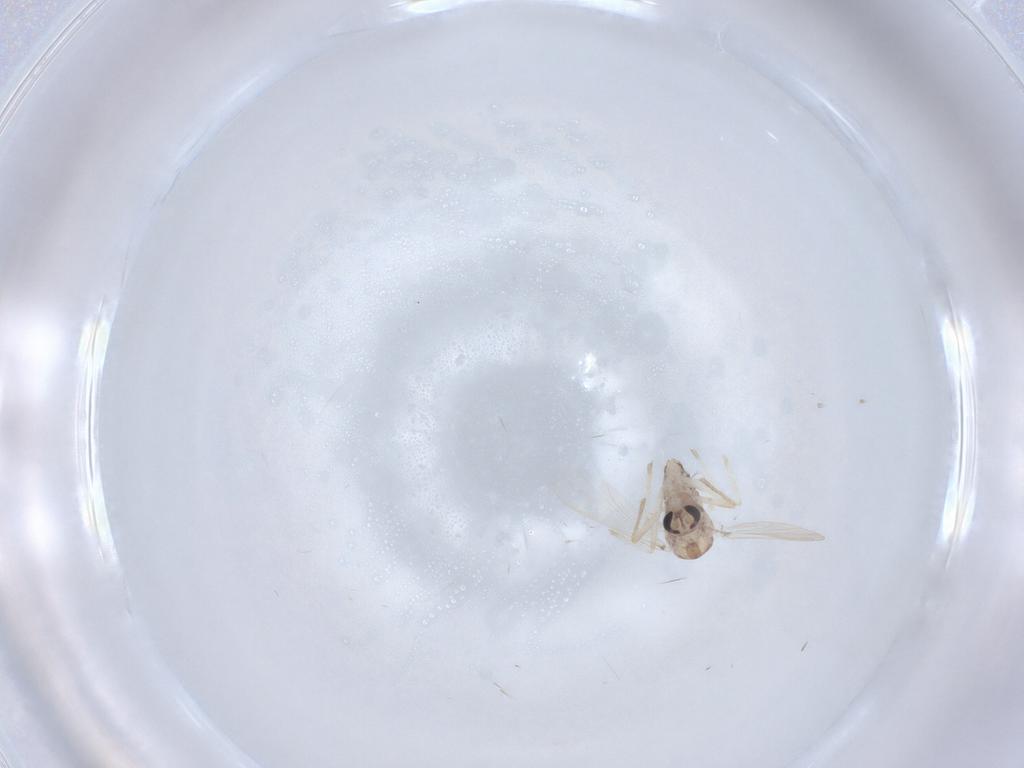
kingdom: Animalia
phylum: Arthropoda
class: Insecta
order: Diptera
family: Chironomidae
